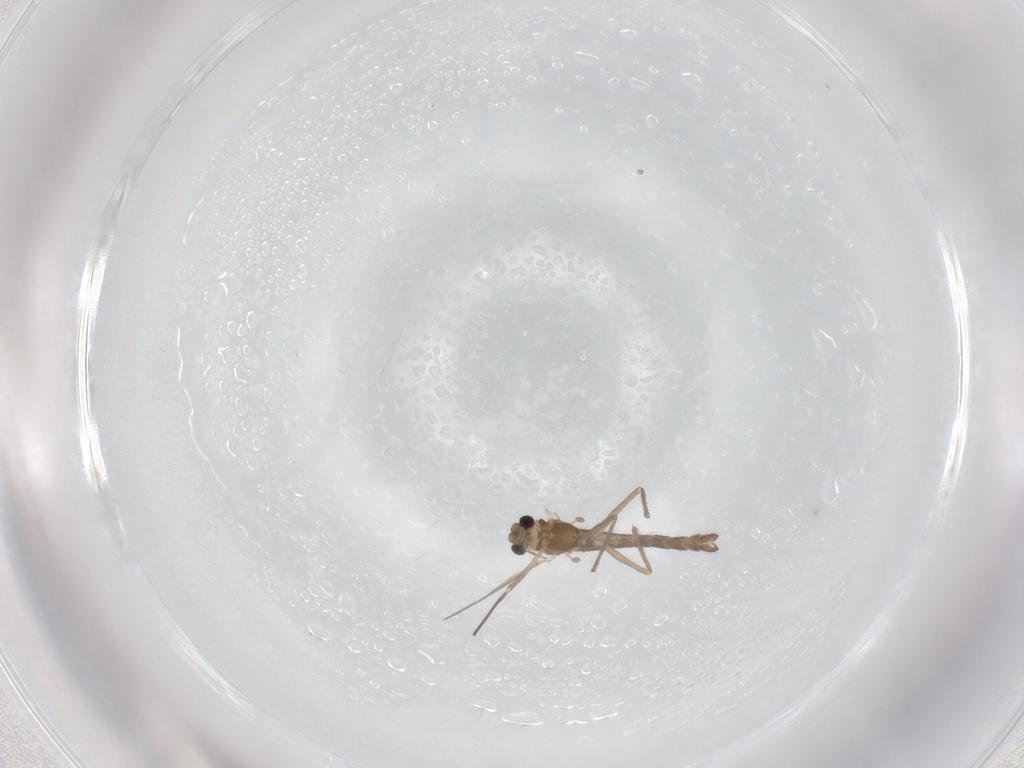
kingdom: Animalia
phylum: Arthropoda
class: Insecta
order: Diptera
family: Chironomidae
